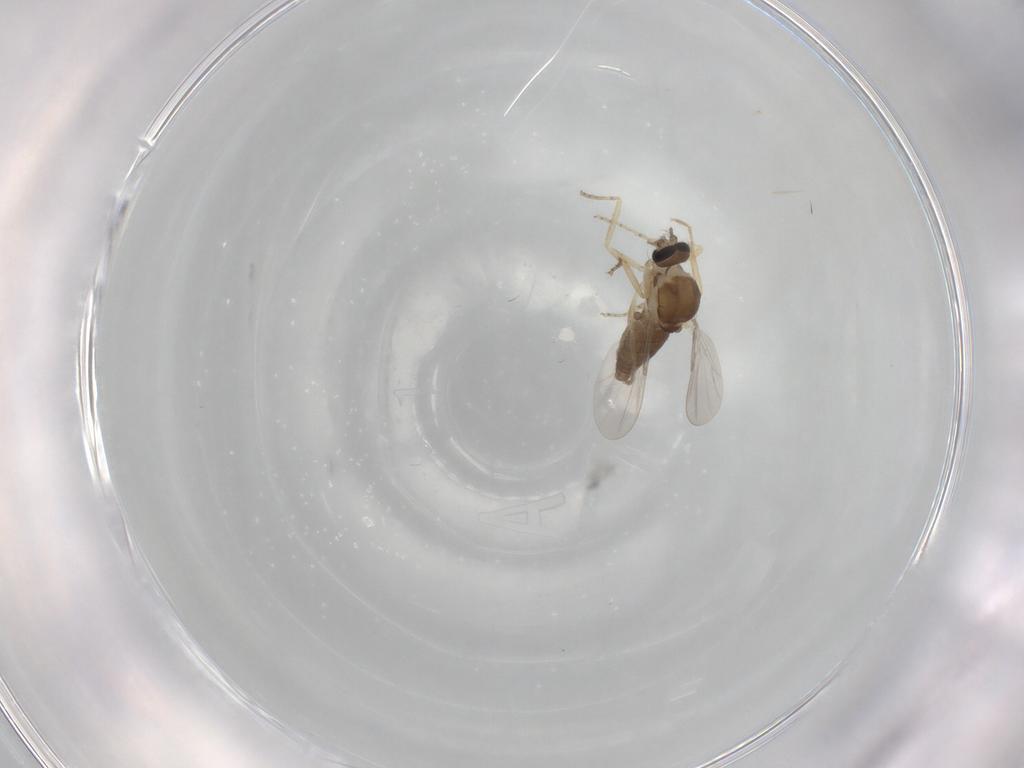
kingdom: Animalia
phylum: Arthropoda
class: Insecta
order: Diptera
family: Ceratopogonidae
